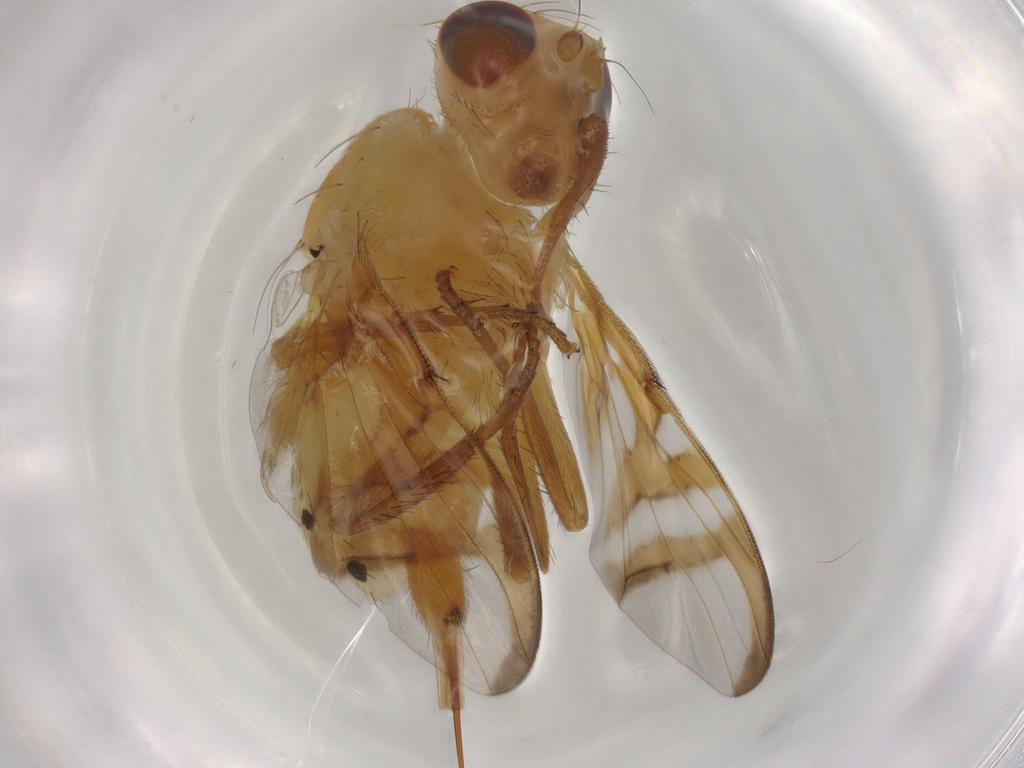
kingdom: Animalia
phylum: Arthropoda
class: Insecta
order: Diptera
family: Tephritidae
